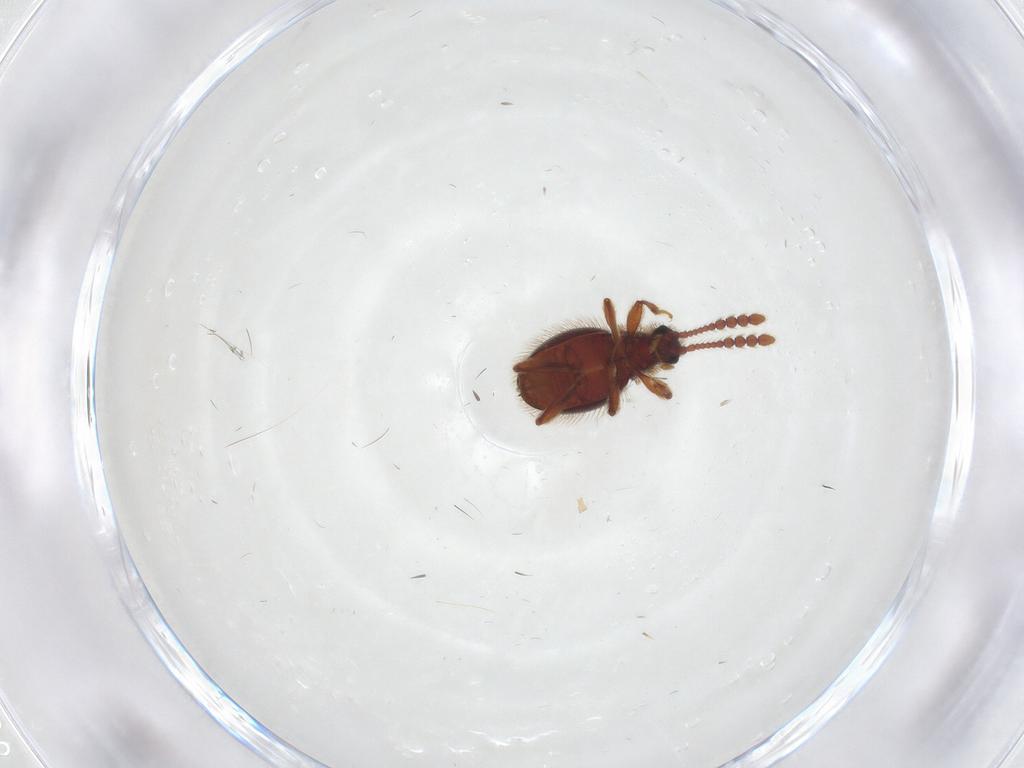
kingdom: Animalia
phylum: Arthropoda
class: Insecta
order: Coleoptera
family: Staphylinidae
